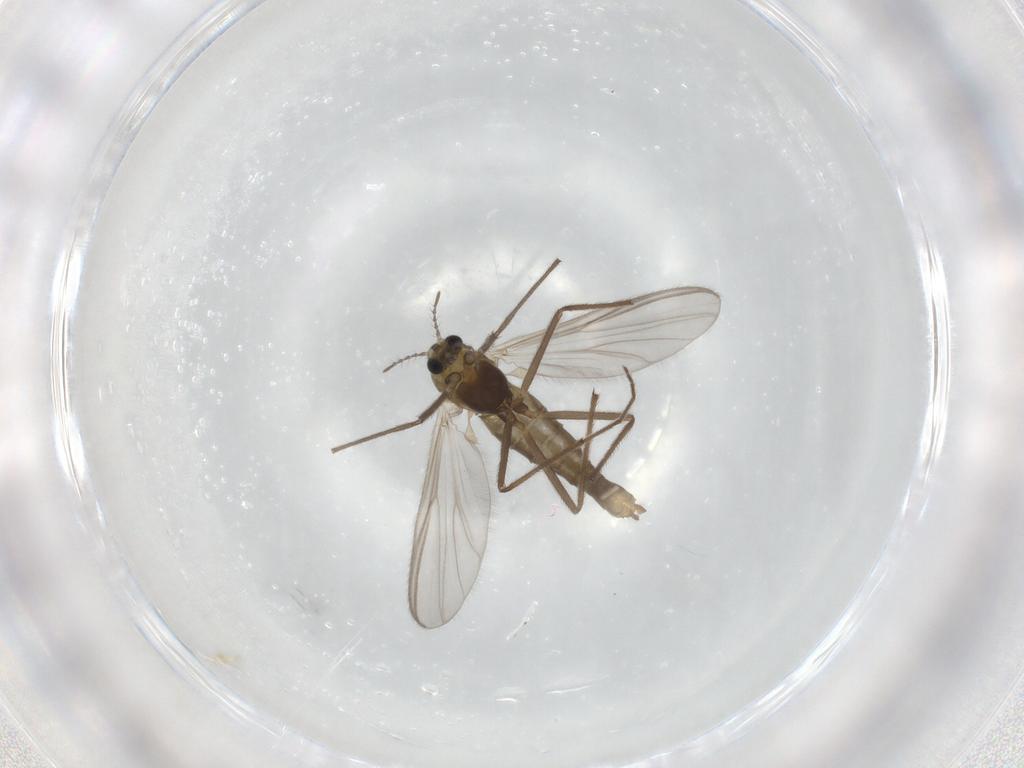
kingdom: Animalia
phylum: Arthropoda
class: Insecta
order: Diptera
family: Chironomidae
